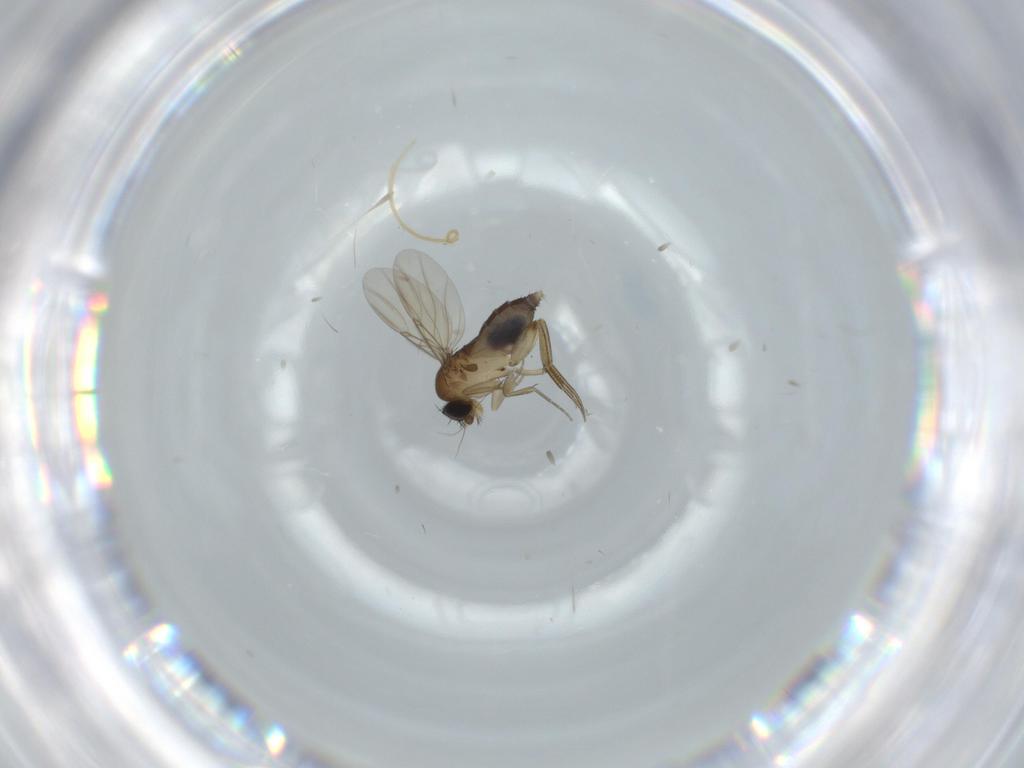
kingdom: Animalia
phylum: Arthropoda
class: Insecta
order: Diptera
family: Phoridae
